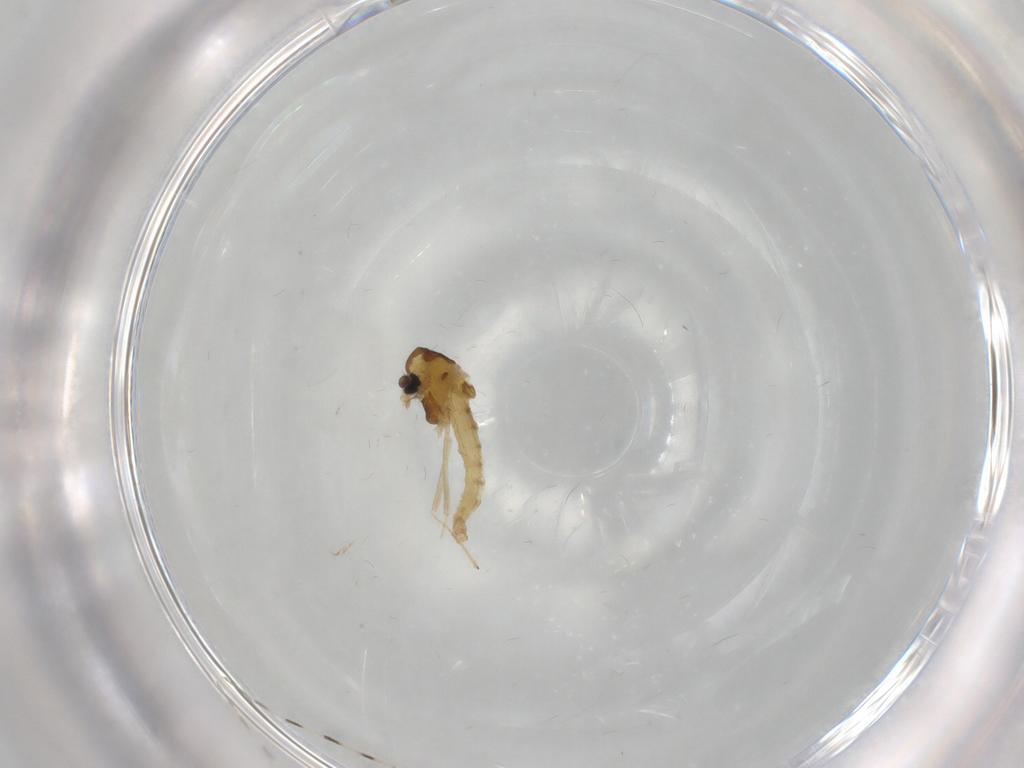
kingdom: Animalia
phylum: Arthropoda
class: Insecta
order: Diptera
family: Chironomidae
